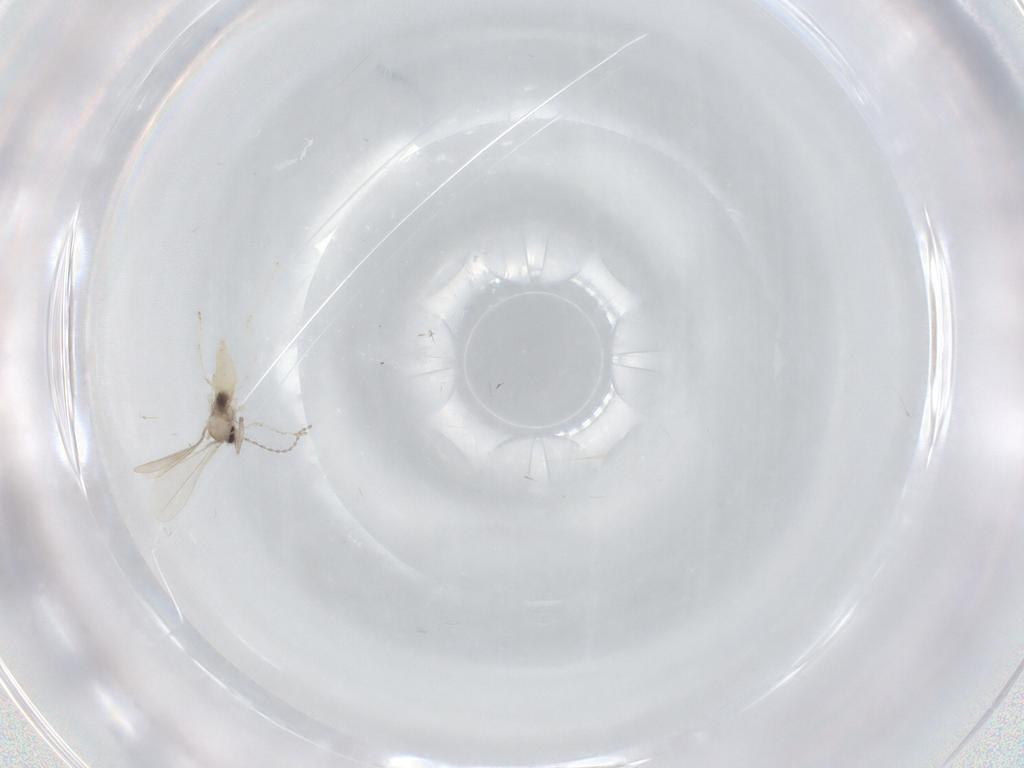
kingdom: Animalia
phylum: Arthropoda
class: Insecta
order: Diptera
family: Cecidomyiidae
